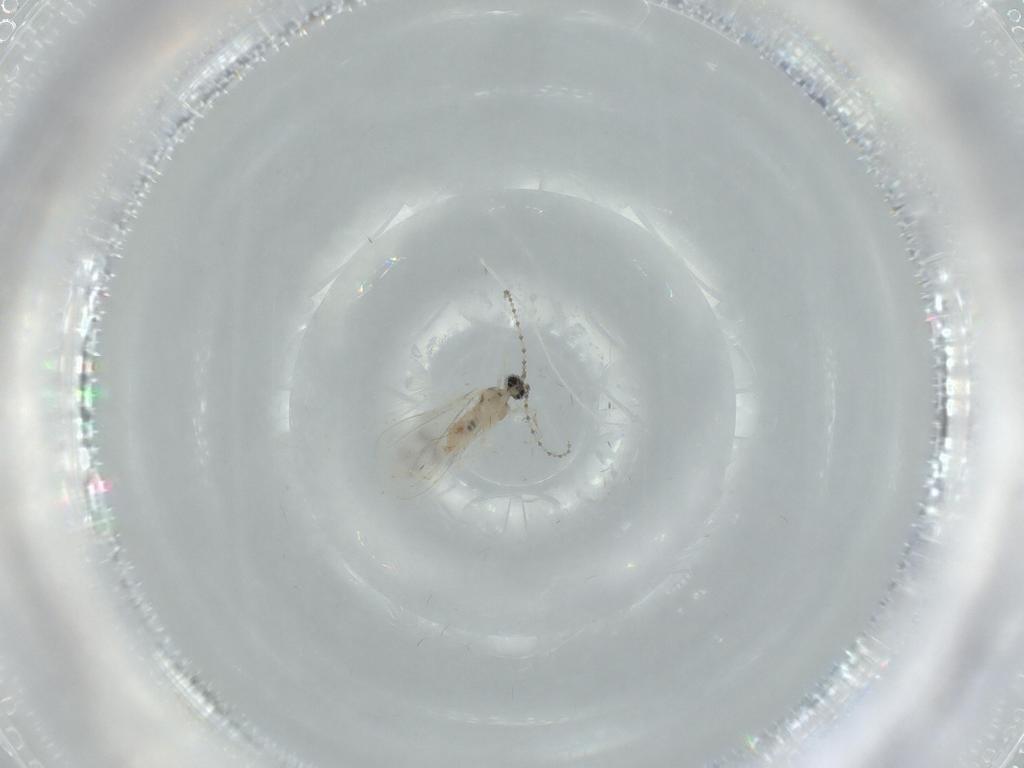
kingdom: Animalia
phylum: Arthropoda
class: Insecta
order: Diptera
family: Cecidomyiidae
